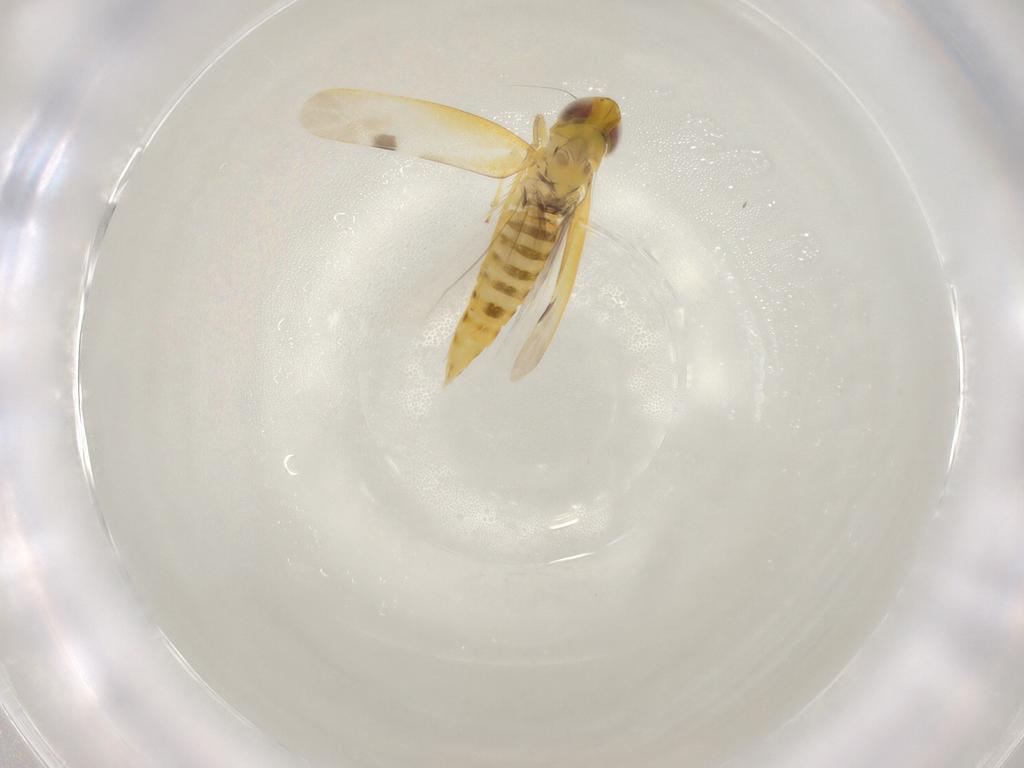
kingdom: Animalia
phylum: Arthropoda
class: Insecta
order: Hemiptera
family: Cicadellidae
